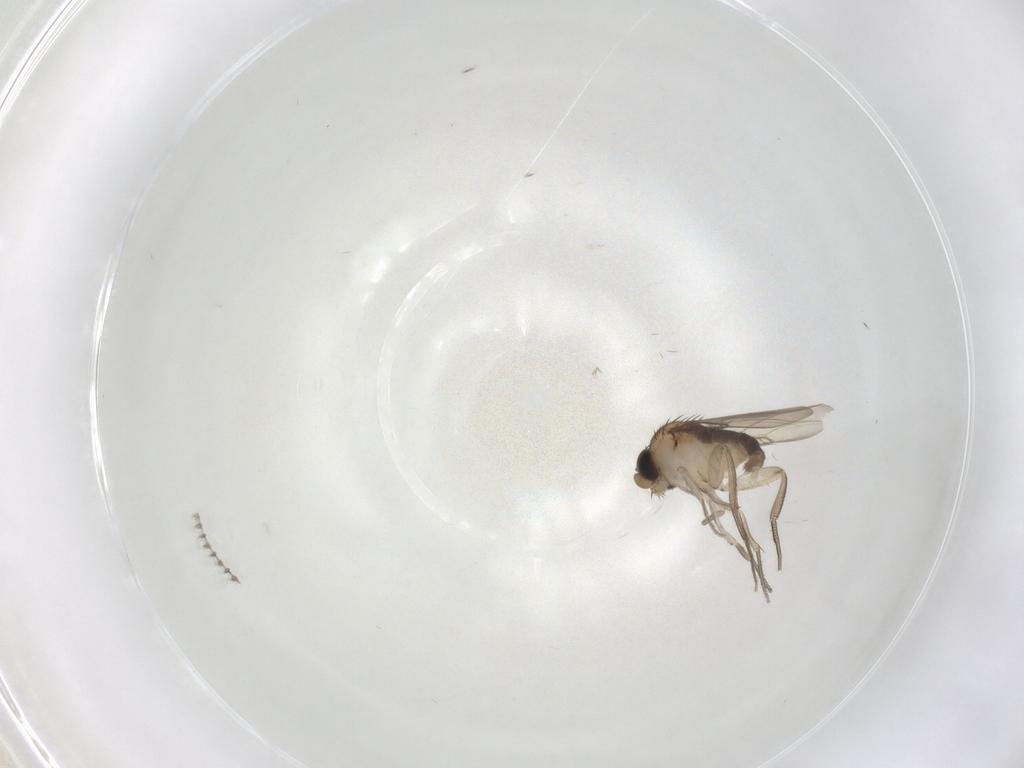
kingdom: Animalia
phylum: Arthropoda
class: Insecta
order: Diptera
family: Phoridae
